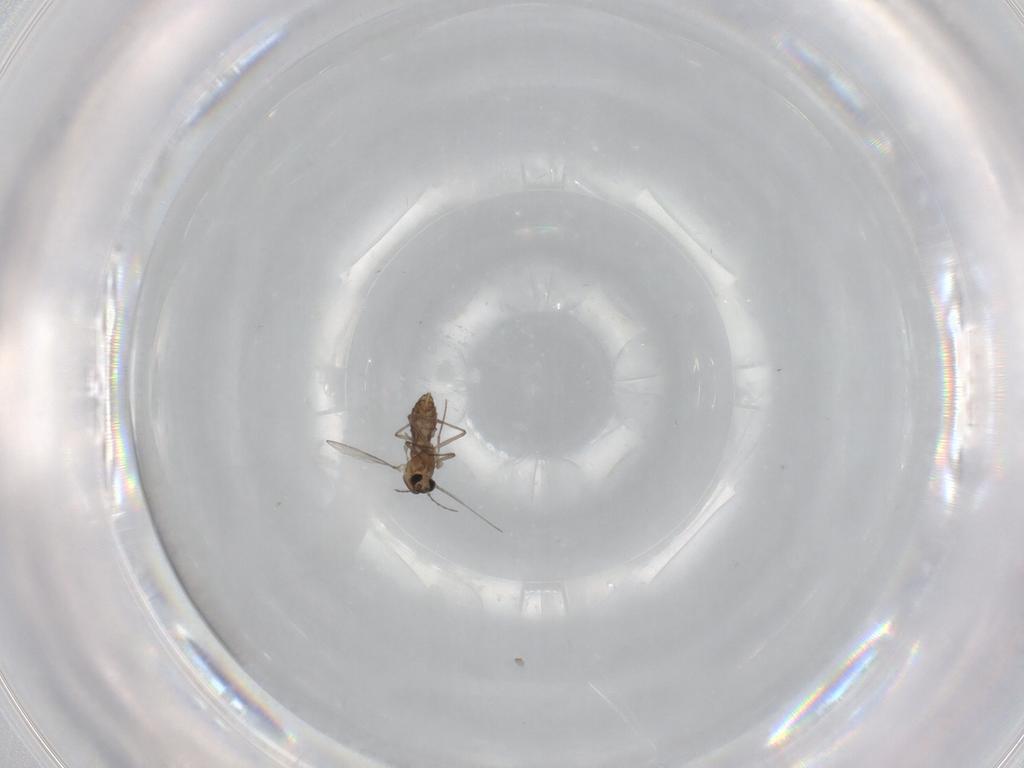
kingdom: Animalia
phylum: Arthropoda
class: Insecta
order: Diptera
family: Chironomidae
